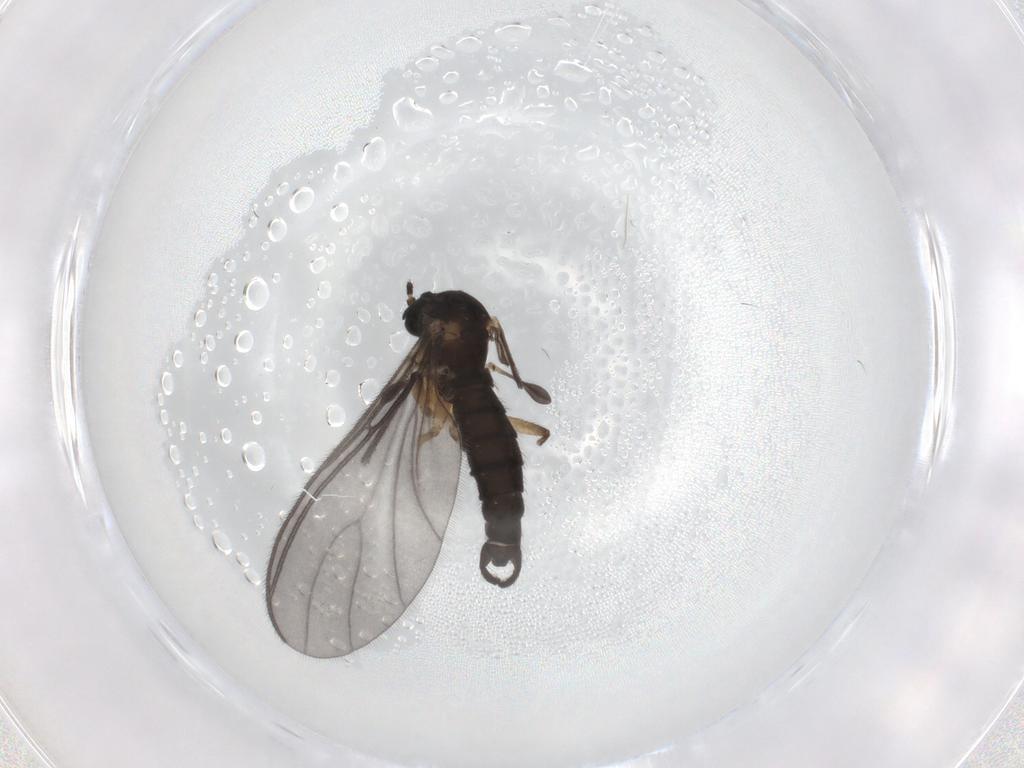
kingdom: Animalia
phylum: Arthropoda
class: Insecta
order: Diptera
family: Sciaridae
